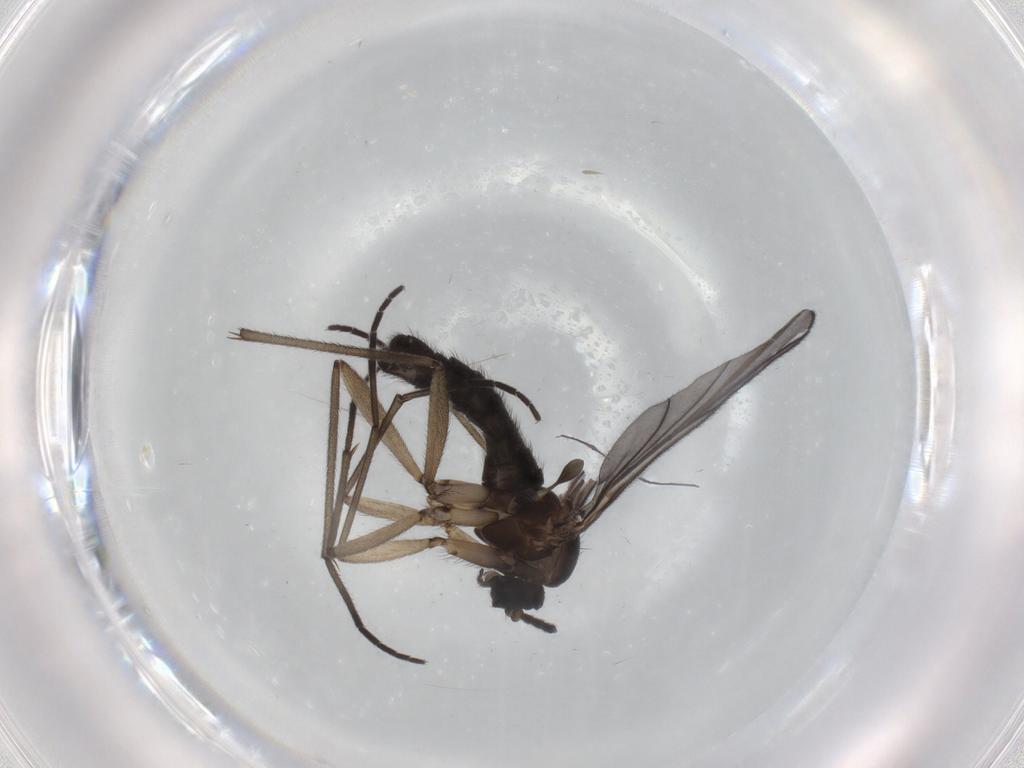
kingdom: Animalia
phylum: Arthropoda
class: Insecta
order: Diptera
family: Sciaridae
